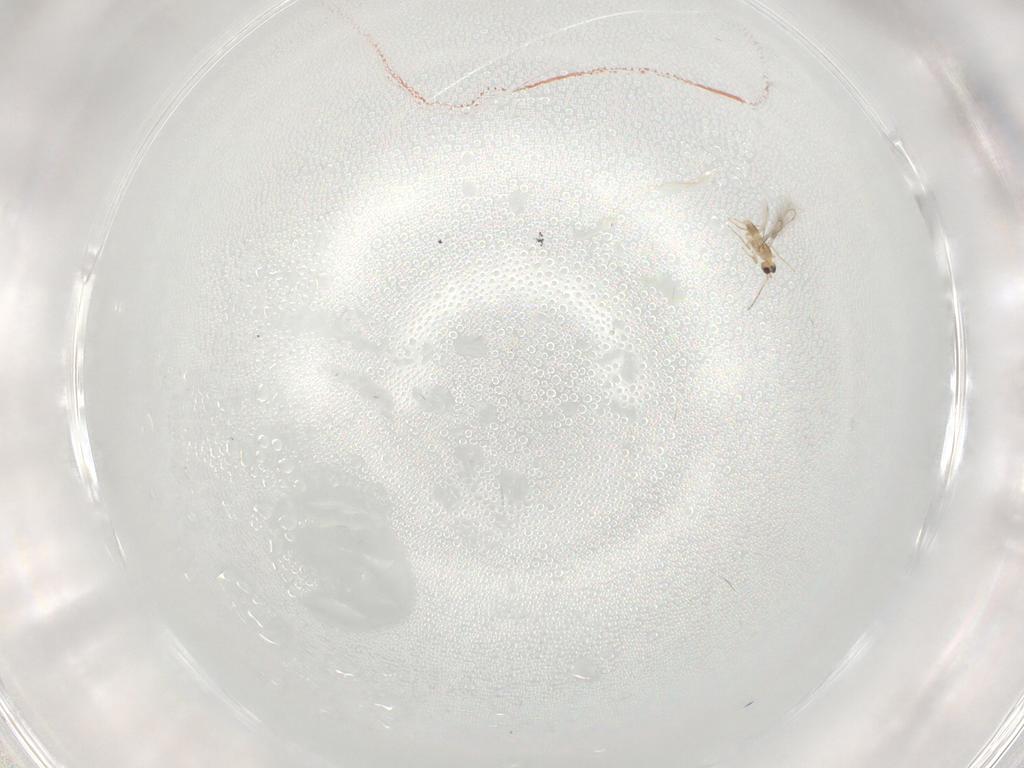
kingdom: Animalia
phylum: Arthropoda
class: Insecta
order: Hymenoptera
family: Mymaridae
